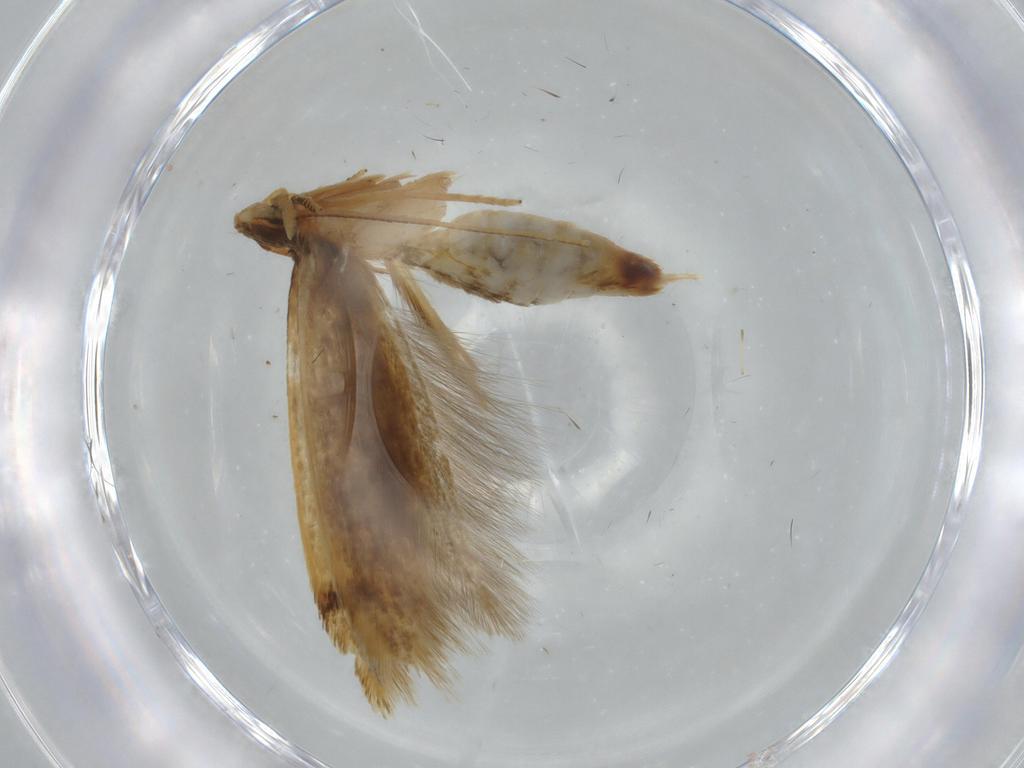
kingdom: Animalia
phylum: Arthropoda
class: Insecta
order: Lepidoptera
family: Tineidae
